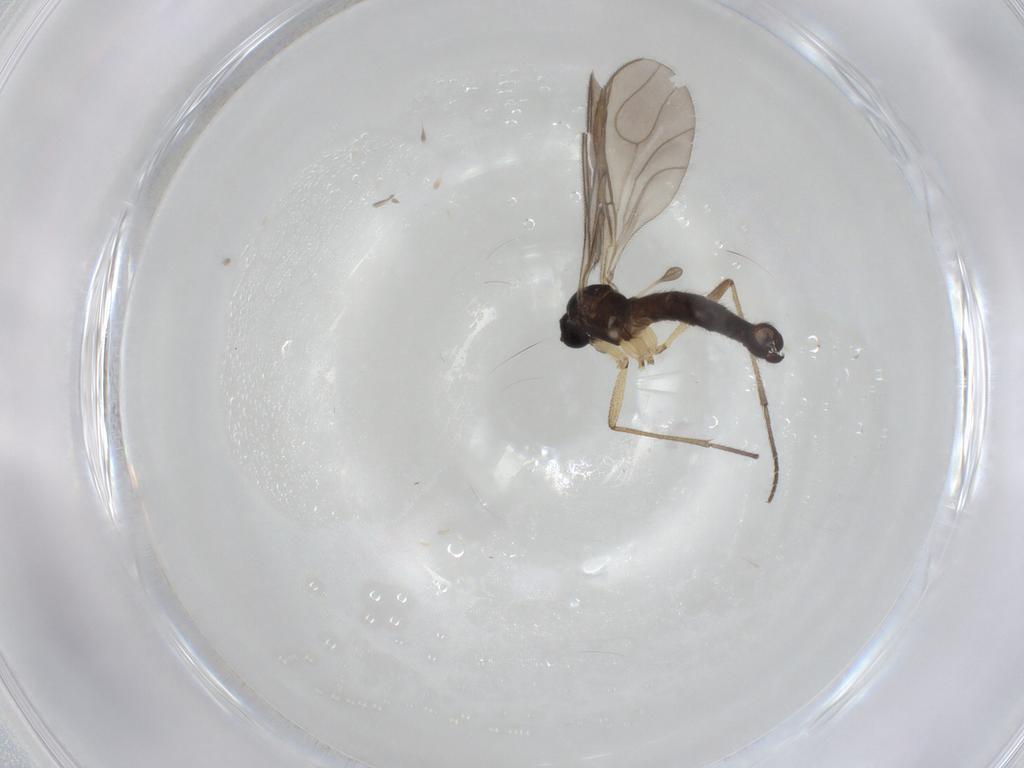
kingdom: Animalia
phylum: Arthropoda
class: Insecta
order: Diptera
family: Sciaridae
